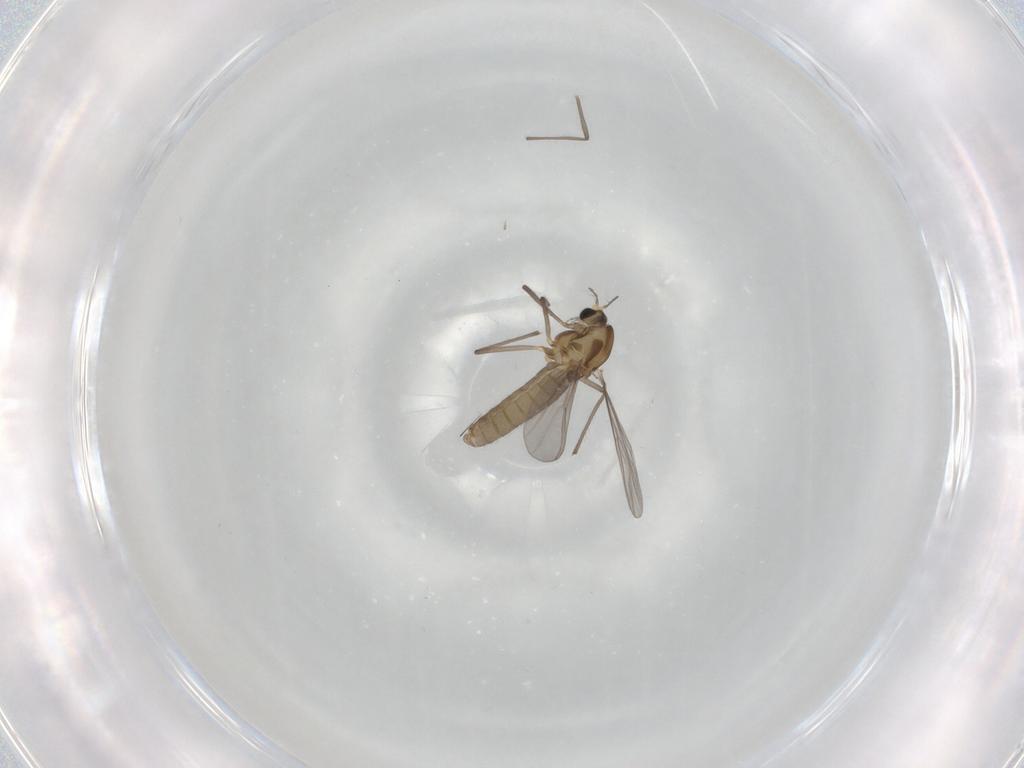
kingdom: Animalia
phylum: Arthropoda
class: Insecta
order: Diptera
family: Psychodidae
